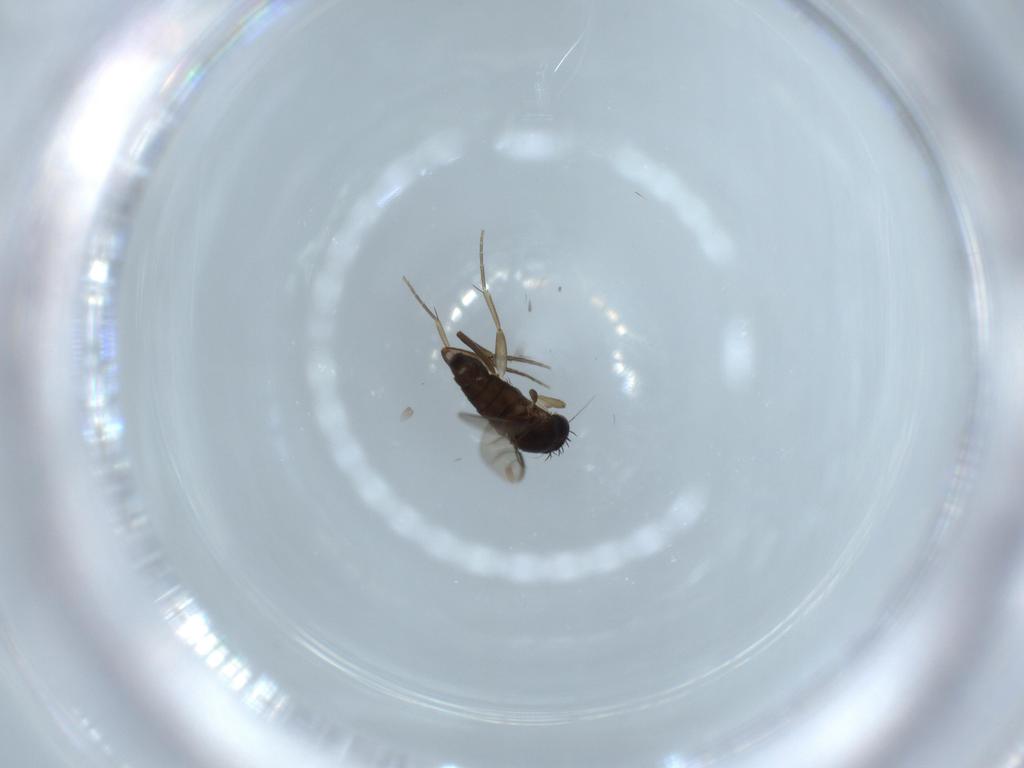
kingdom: Animalia
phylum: Arthropoda
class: Insecta
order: Diptera
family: Phoridae
